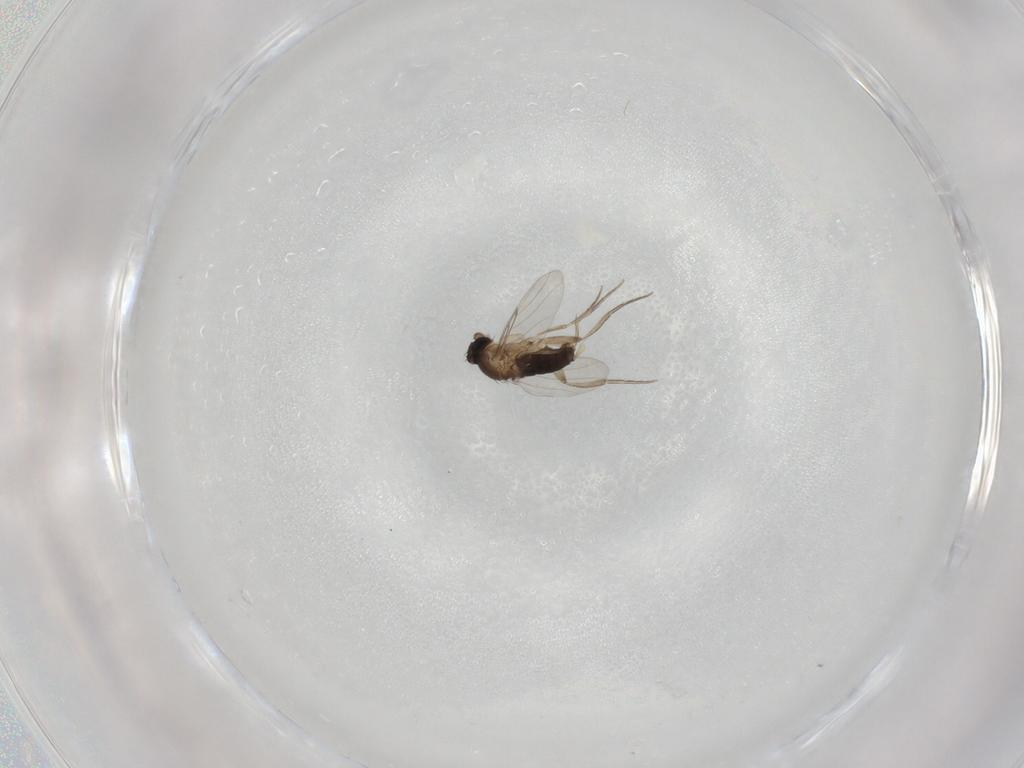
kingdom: Animalia
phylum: Arthropoda
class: Insecta
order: Diptera
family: Phoridae
